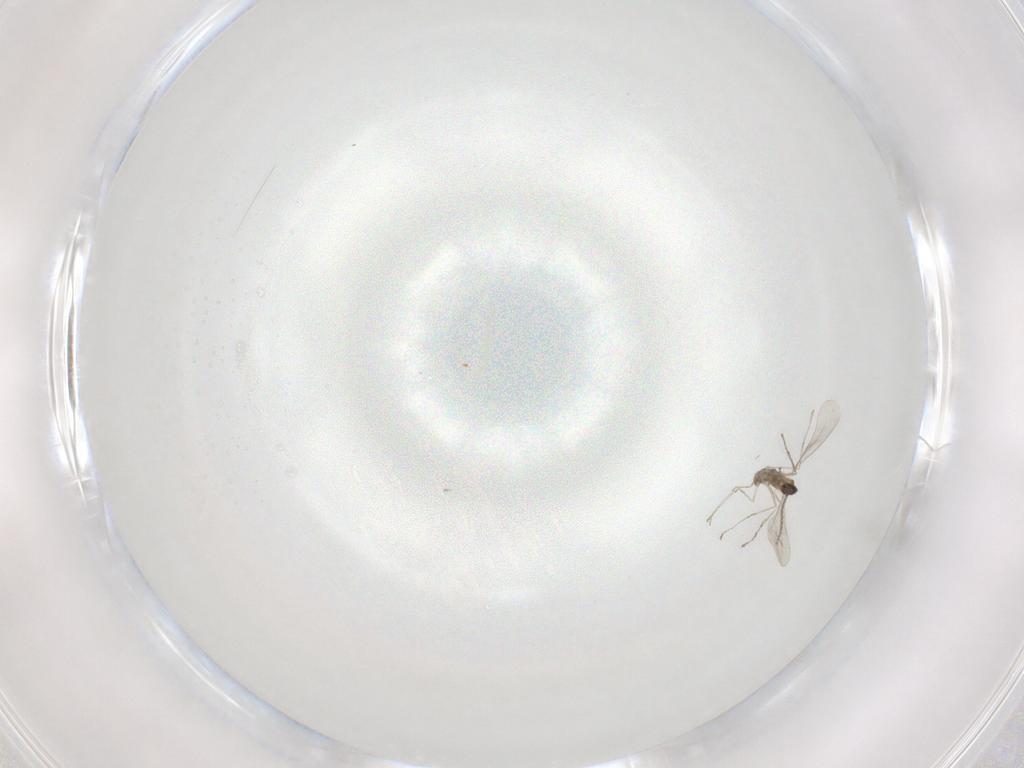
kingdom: Animalia
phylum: Arthropoda
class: Insecta
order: Diptera
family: Cecidomyiidae
